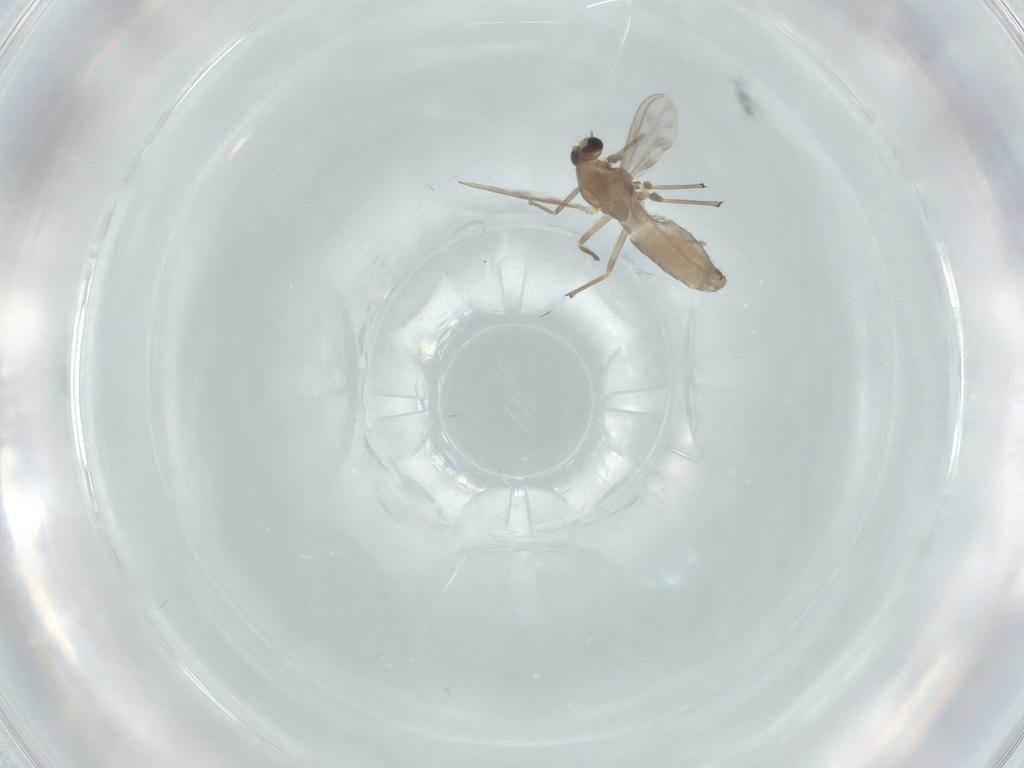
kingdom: Animalia
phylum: Arthropoda
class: Insecta
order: Diptera
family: Chironomidae
